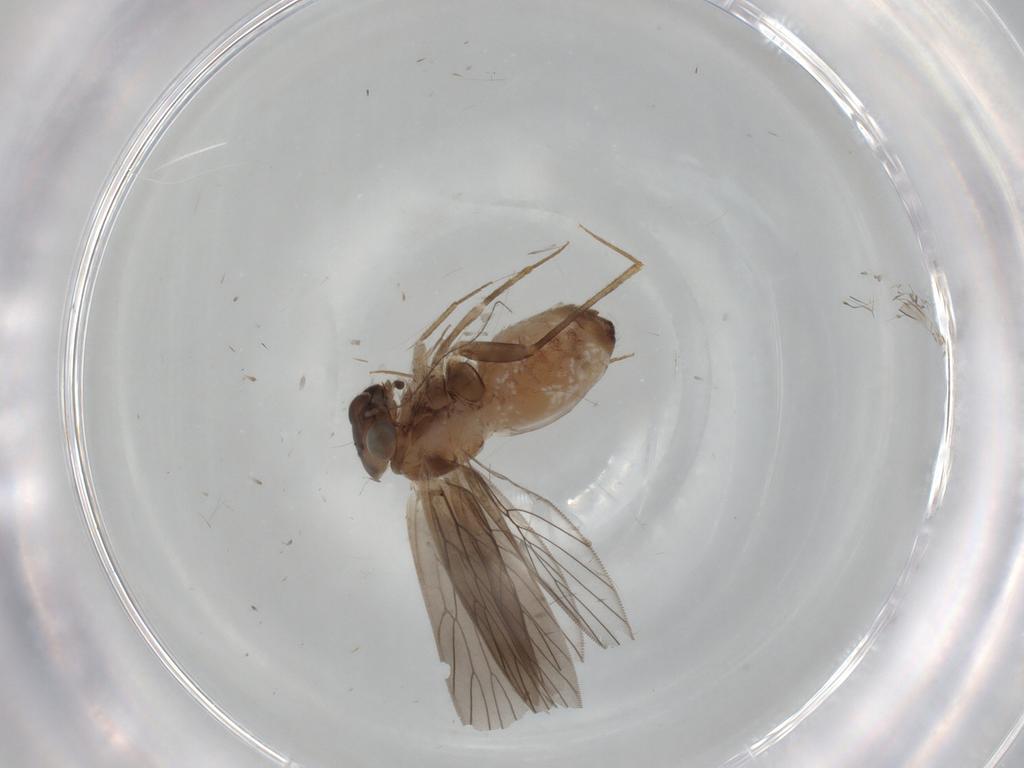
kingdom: Animalia
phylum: Arthropoda
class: Insecta
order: Psocodea
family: Lepidopsocidae
